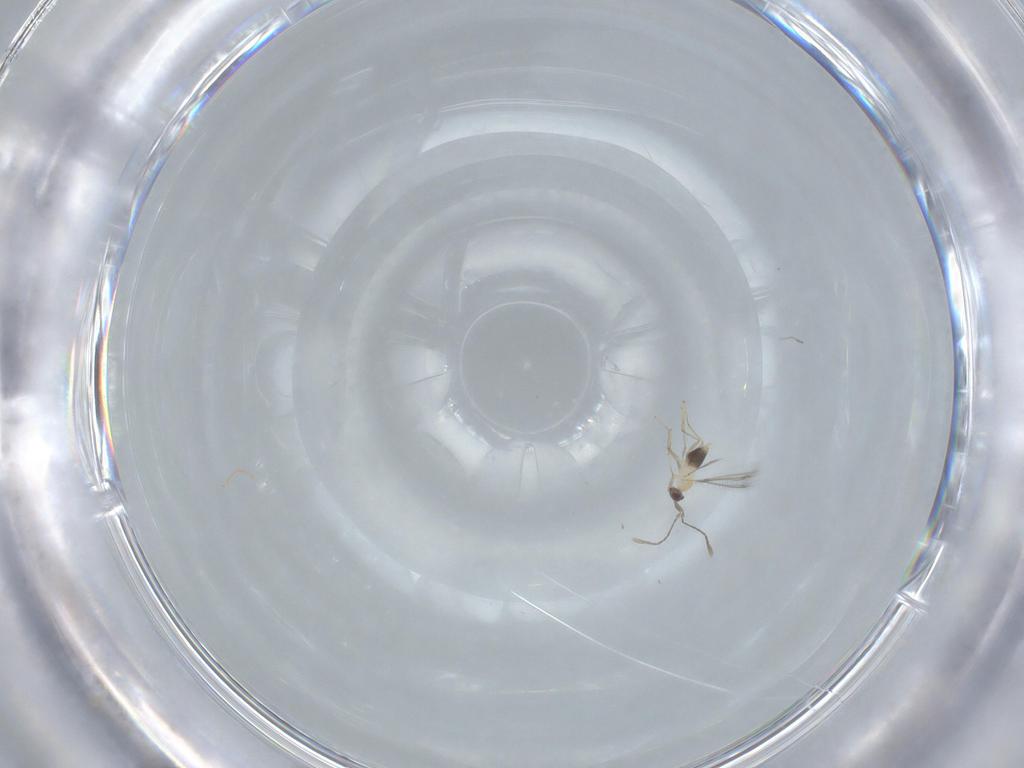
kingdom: Animalia
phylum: Arthropoda
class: Insecta
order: Hymenoptera
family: Mymaridae
